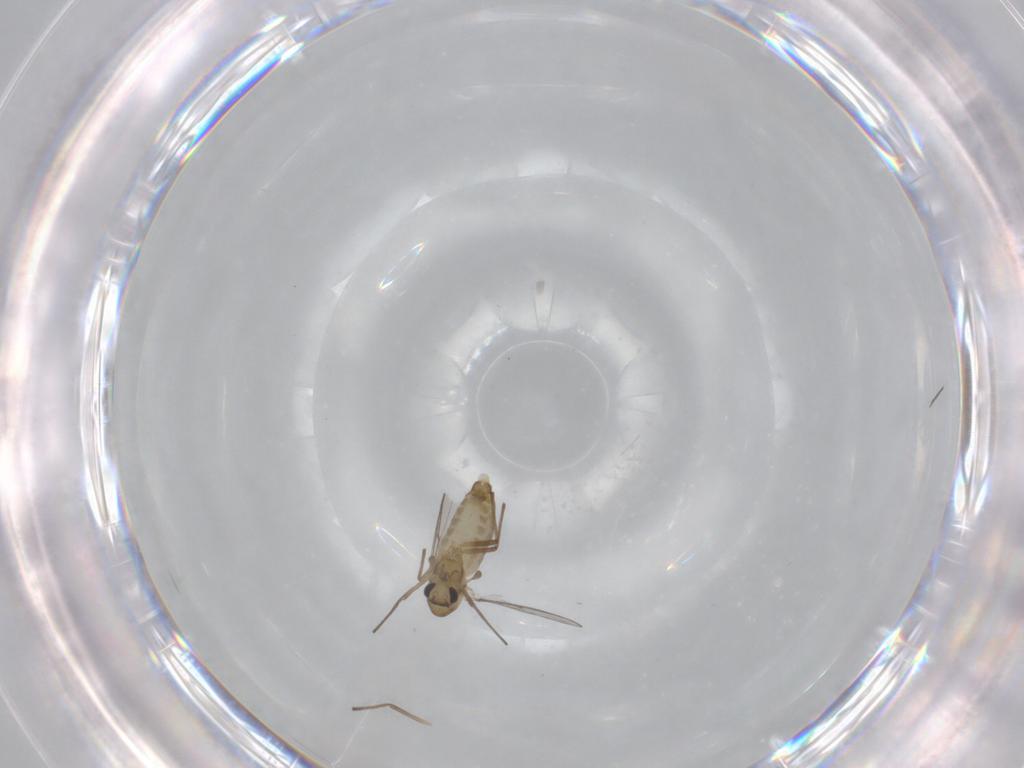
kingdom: Animalia
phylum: Arthropoda
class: Insecta
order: Diptera
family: Chironomidae
